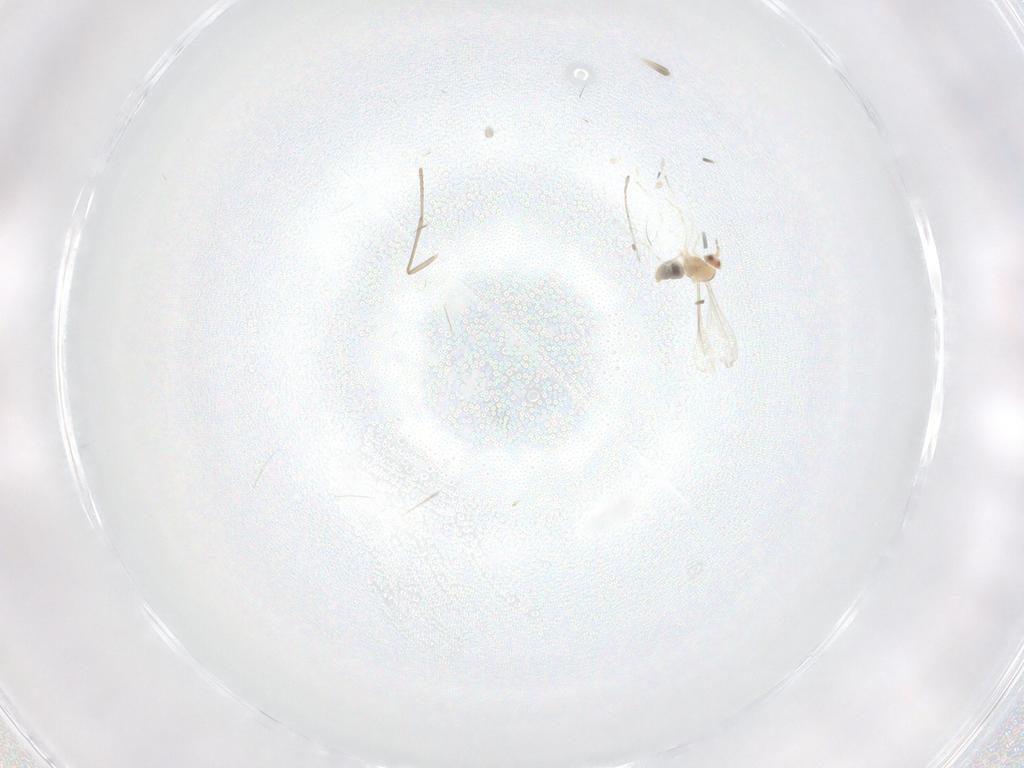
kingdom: Animalia
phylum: Arthropoda
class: Insecta
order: Diptera
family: Psychodidae
